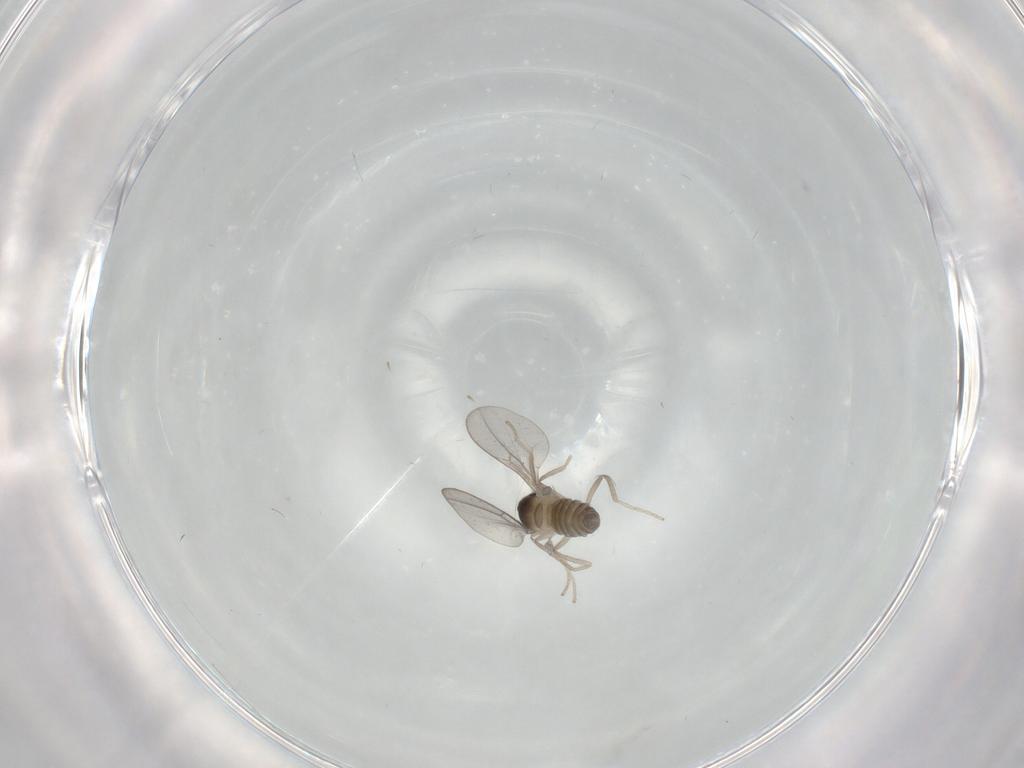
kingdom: Animalia
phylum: Arthropoda
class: Insecta
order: Diptera
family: Cecidomyiidae
